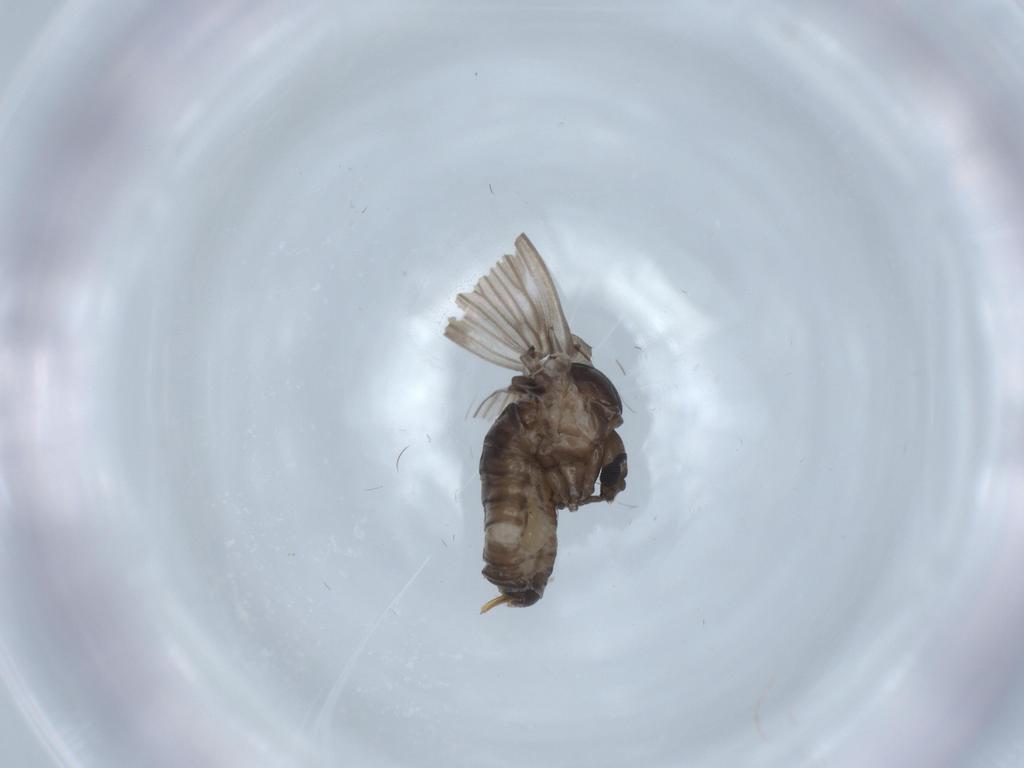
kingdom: Animalia
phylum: Arthropoda
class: Insecta
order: Diptera
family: Psychodidae
